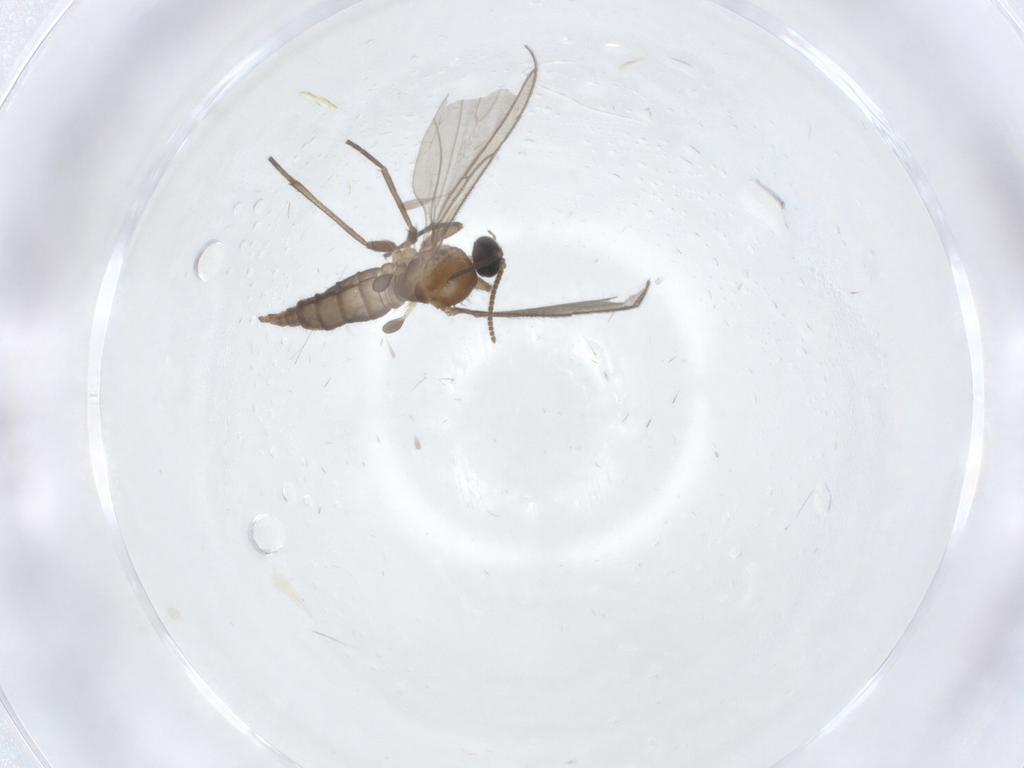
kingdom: Animalia
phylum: Arthropoda
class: Insecta
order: Diptera
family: Sciaridae
